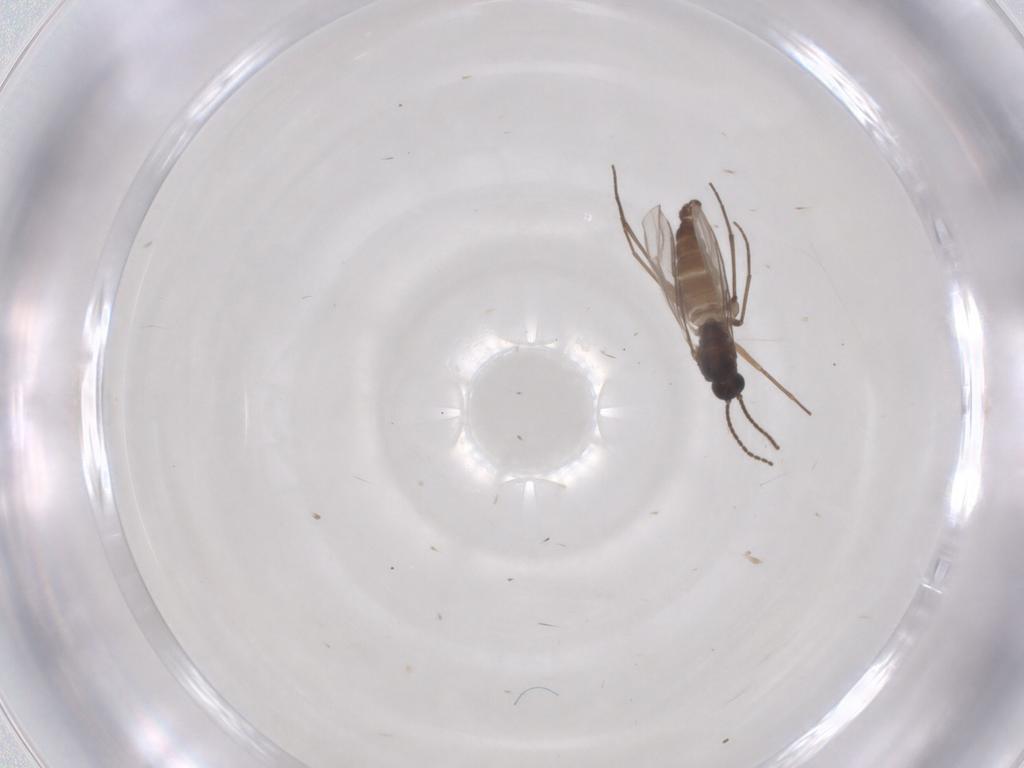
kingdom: Animalia
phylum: Arthropoda
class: Insecta
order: Diptera
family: Sciaridae
